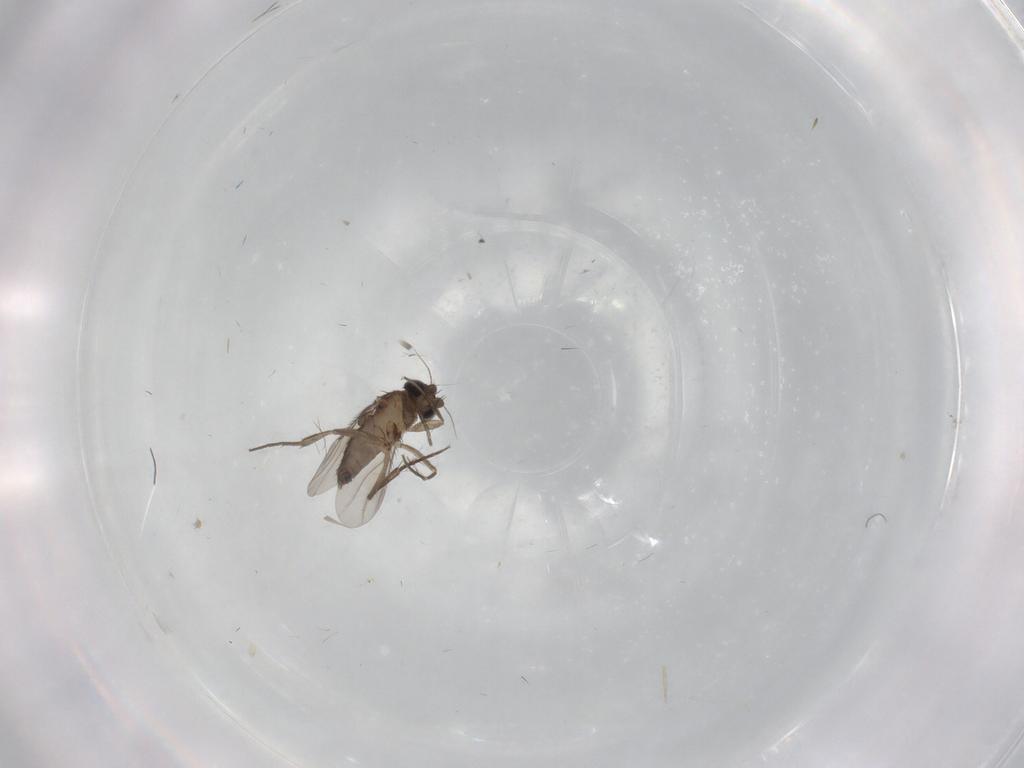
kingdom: Animalia
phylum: Arthropoda
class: Insecta
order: Diptera
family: Phoridae
